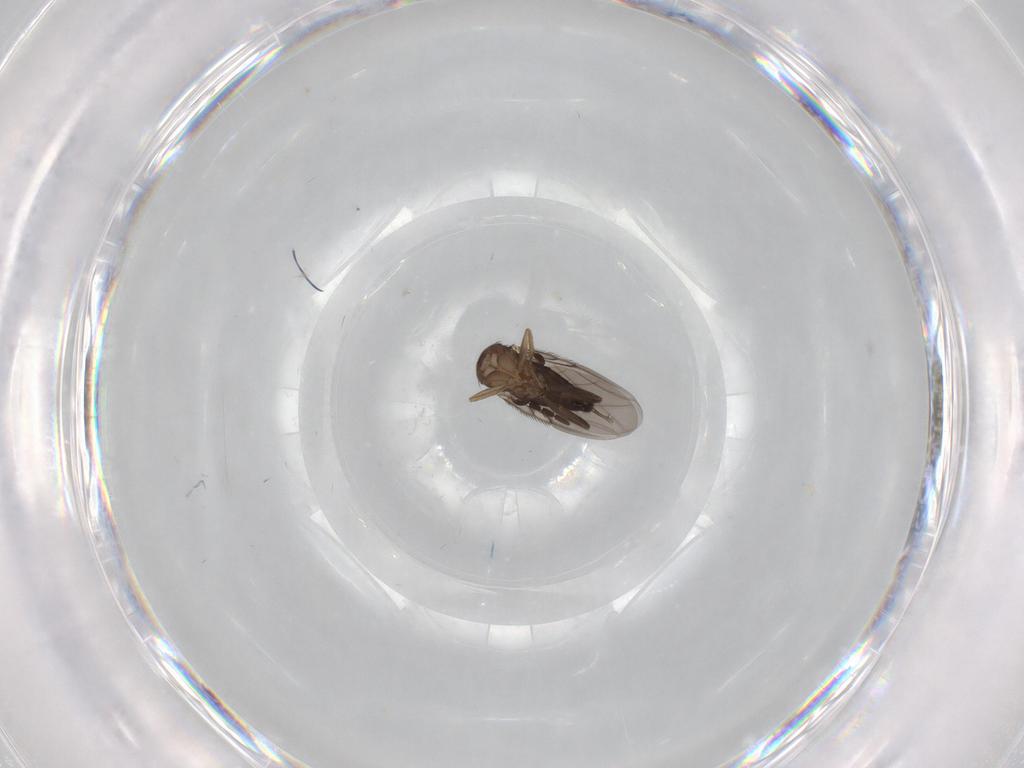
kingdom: Animalia
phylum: Arthropoda
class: Insecta
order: Diptera
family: Phoridae
